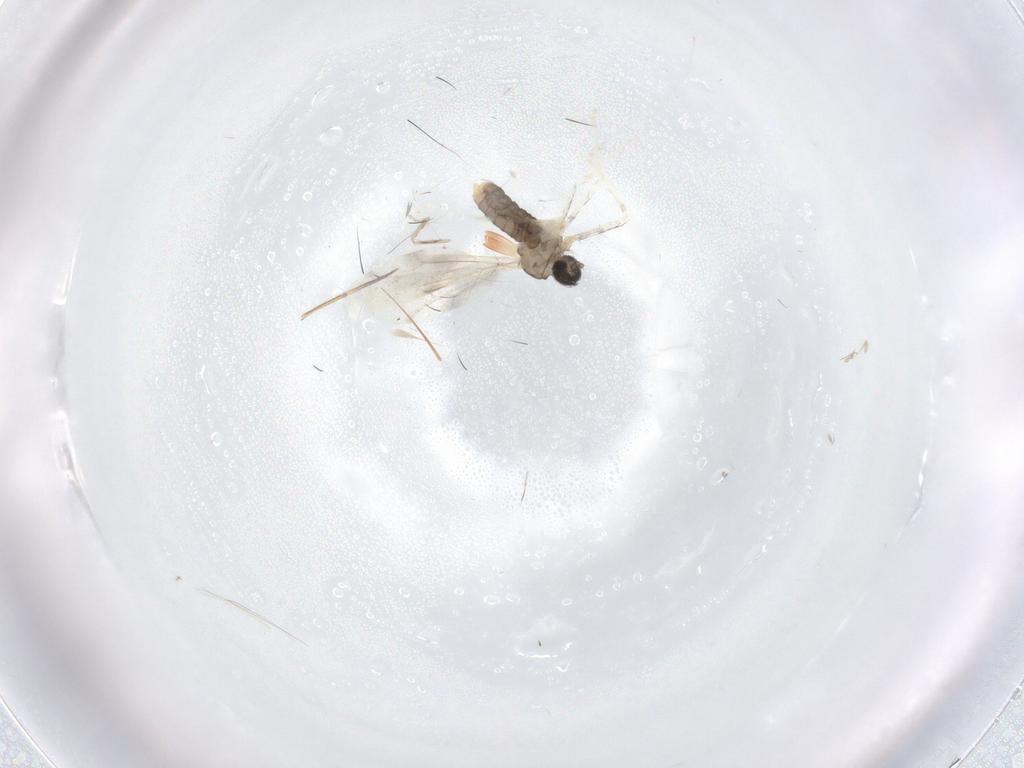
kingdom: Animalia
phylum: Arthropoda
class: Insecta
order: Diptera
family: Cecidomyiidae
